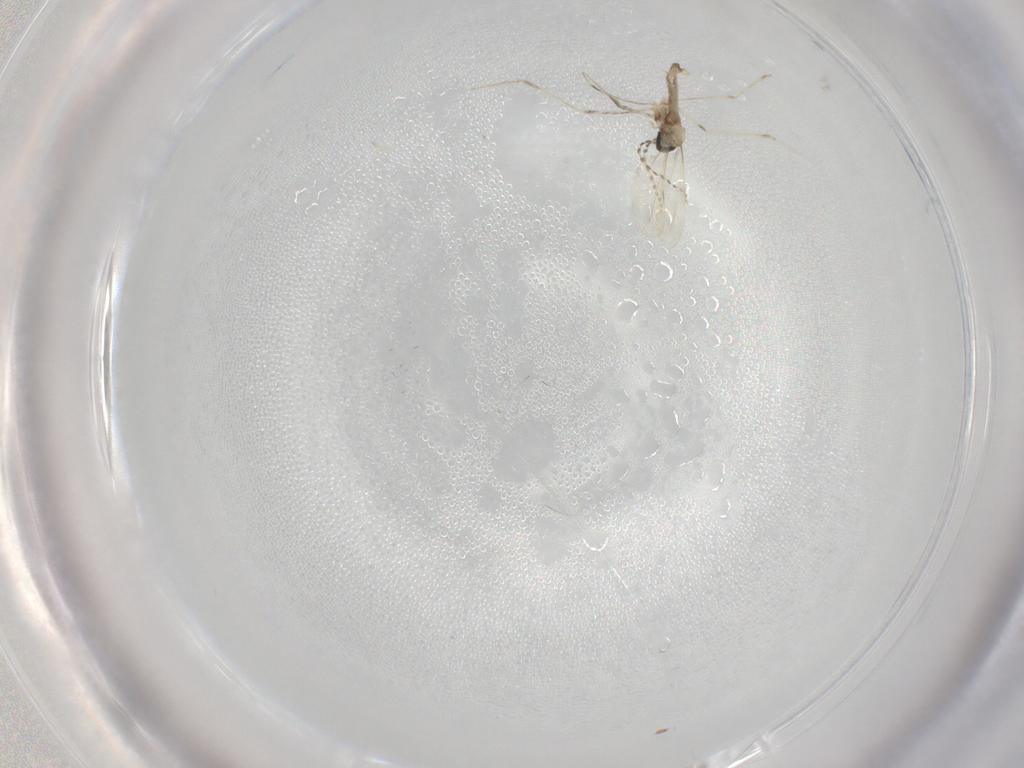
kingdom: Animalia
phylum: Arthropoda
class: Insecta
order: Diptera
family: Cecidomyiidae
